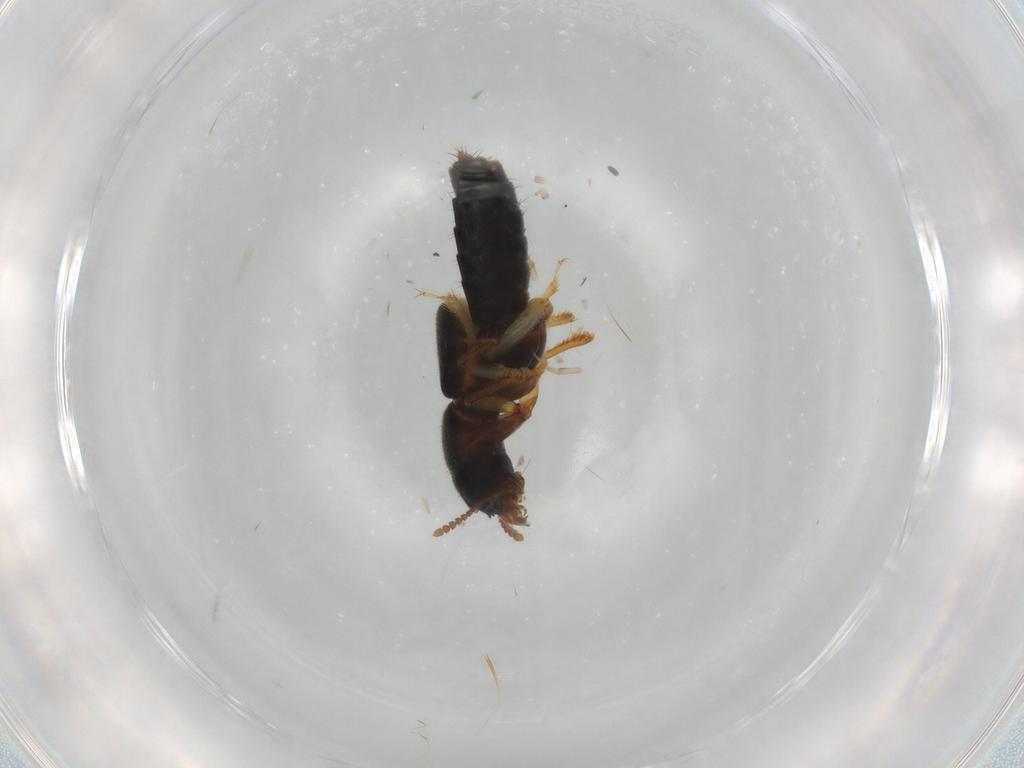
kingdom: Animalia
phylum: Arthropoda
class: Insecta
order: Coleoptera
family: Staphylinidae
